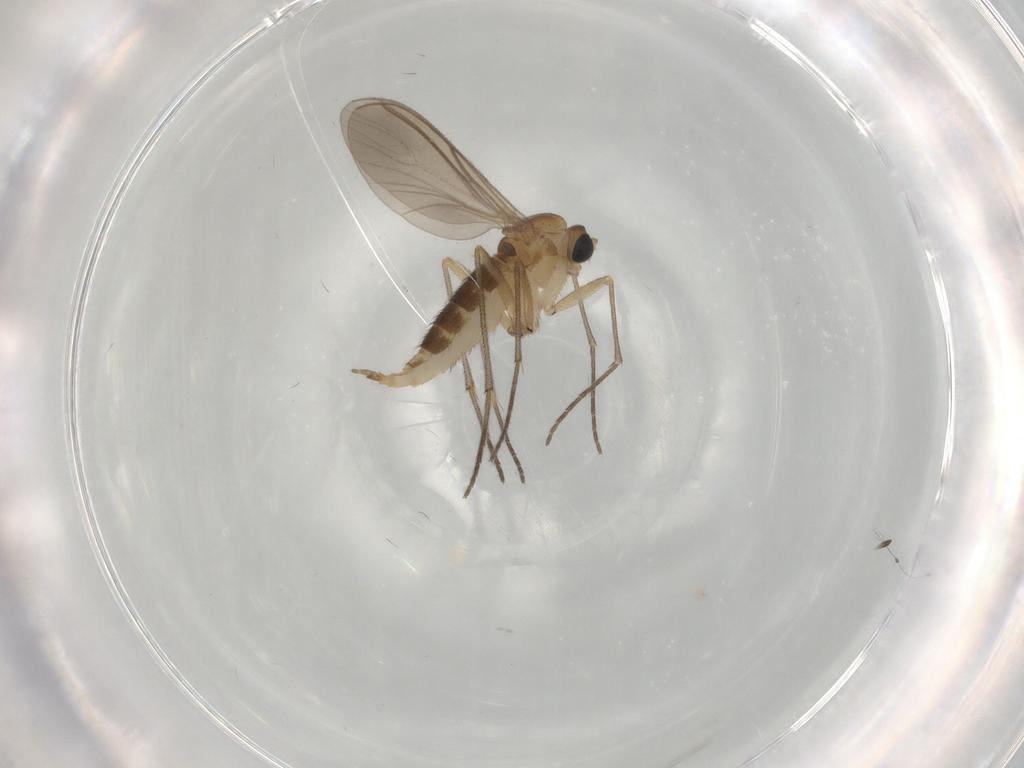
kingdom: Animalia
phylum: Arthropoda
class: Insecta
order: Diptera
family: Sciaridae
